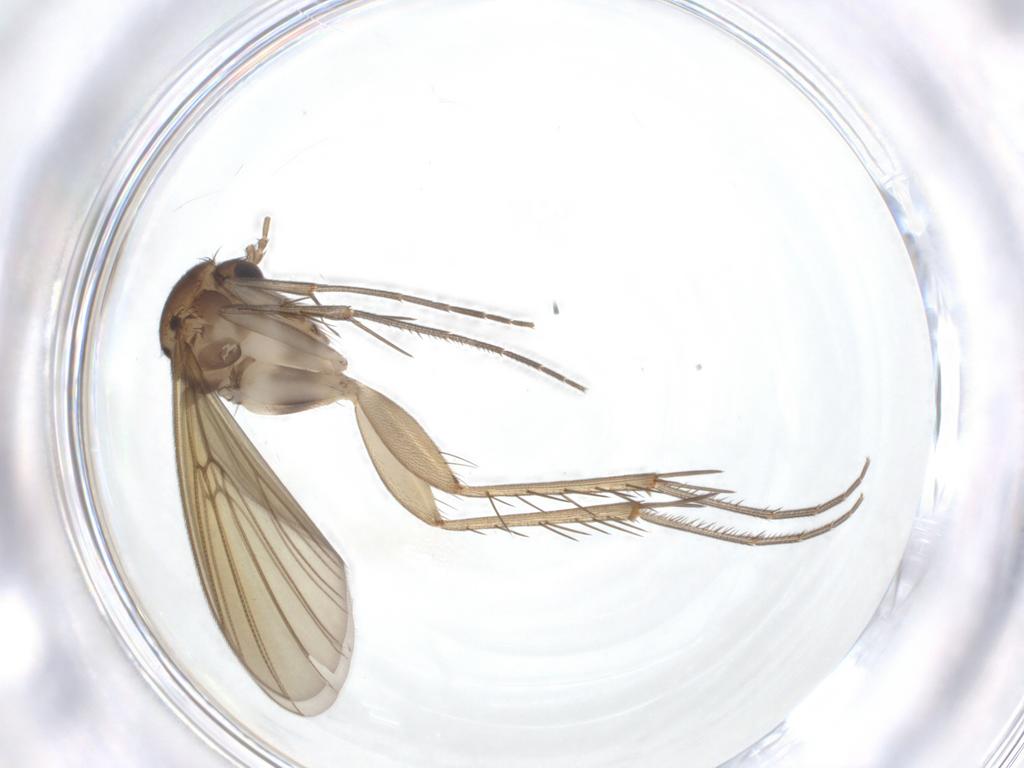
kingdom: Animalia
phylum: Arthropoda
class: Insecta
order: Diptera
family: Mycetophilidae
